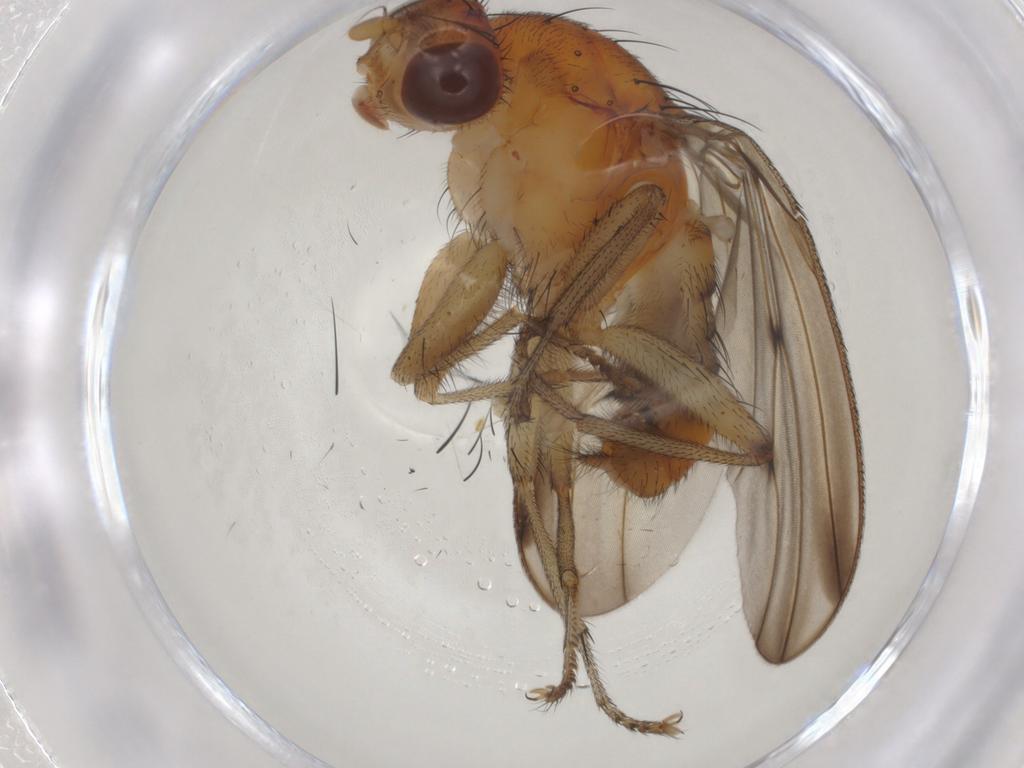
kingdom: Animalia
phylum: Arthropoda
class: Insecta
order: Diptera
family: Heleomyzidae
